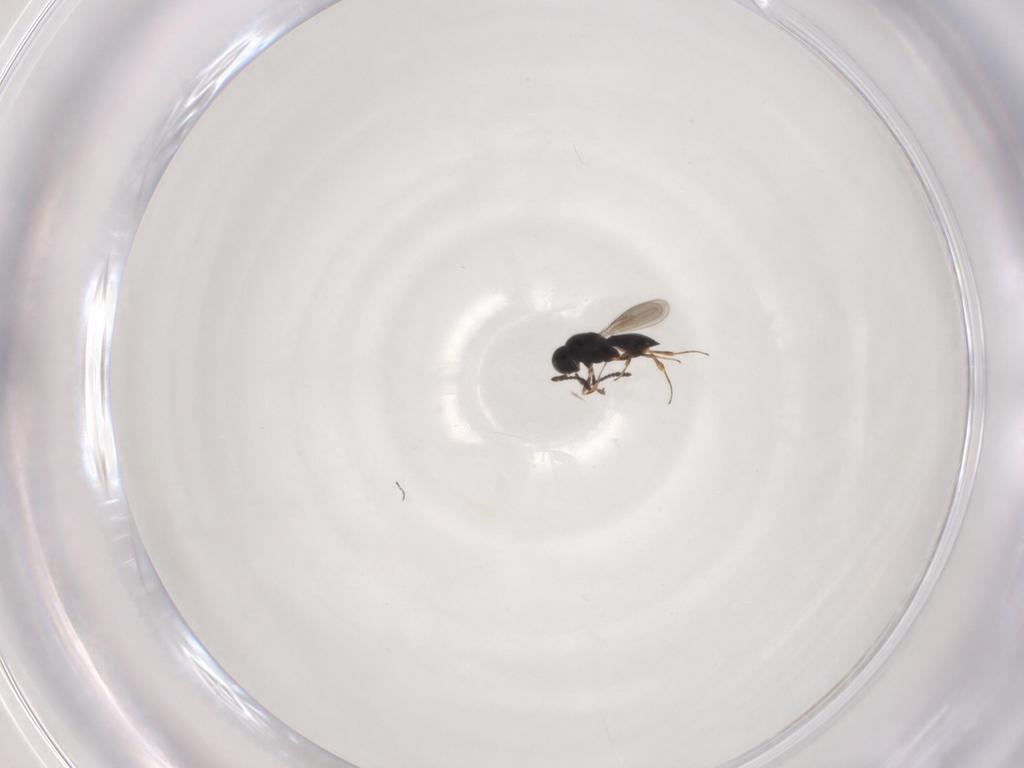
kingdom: Animalia
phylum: Arthropoda
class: Insecta
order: Hymenoptera
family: Scelionidae
